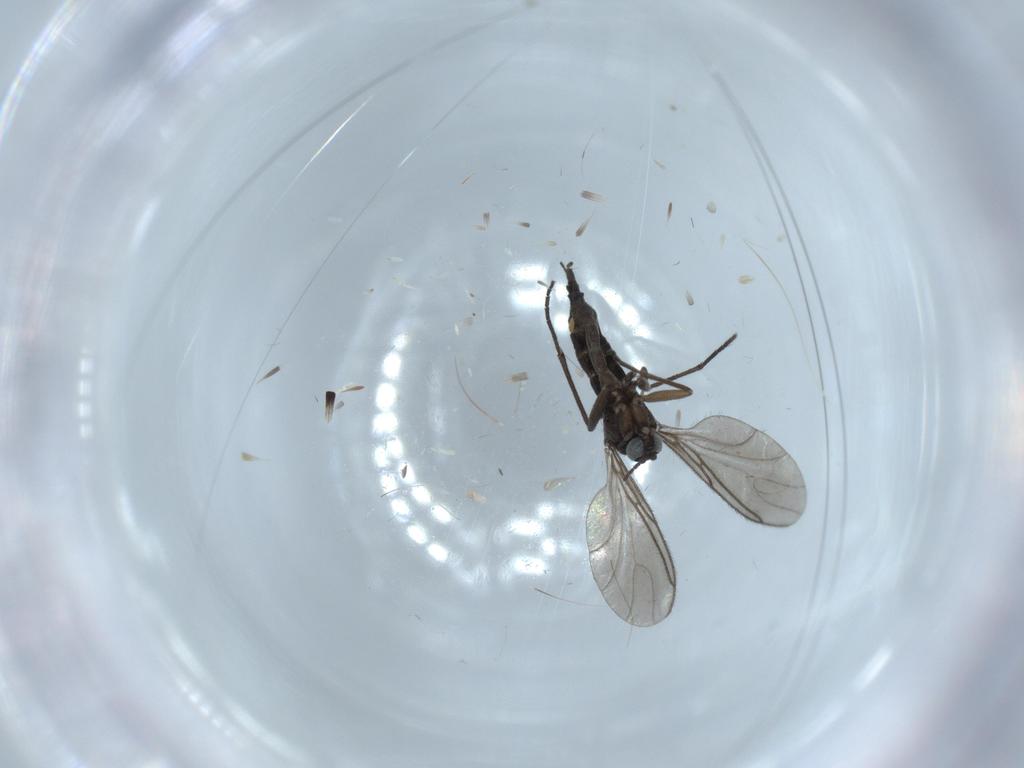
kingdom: Animalia
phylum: Arthropoda
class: Insecta
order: Diptera
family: Sciaridae
